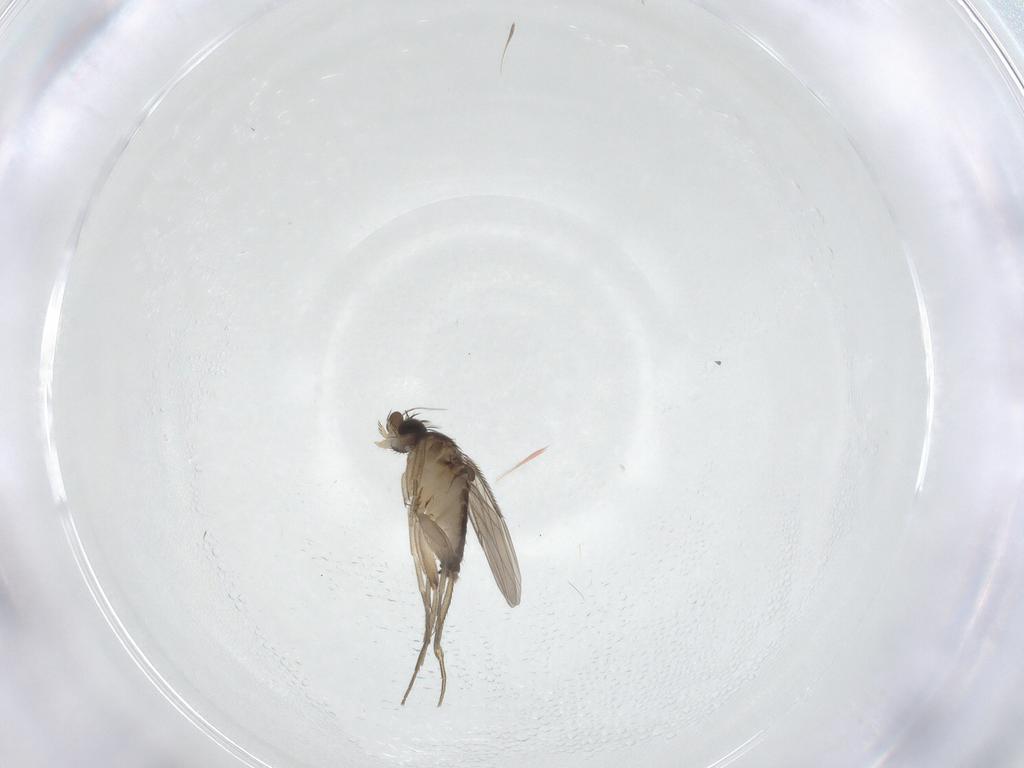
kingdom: Animalia
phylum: Arthropoda
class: Insecta
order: Diptera
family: Phoridae
